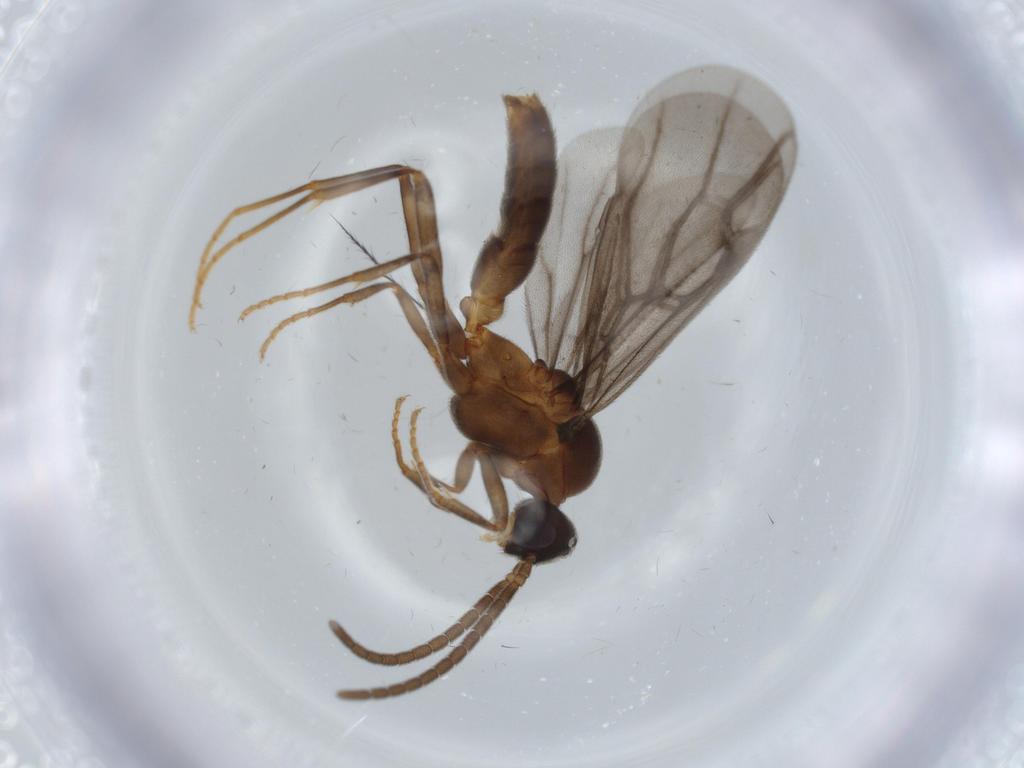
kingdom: Animalia
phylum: Arthropoda
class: Insecta
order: Hymenoptera
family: Formicidae
